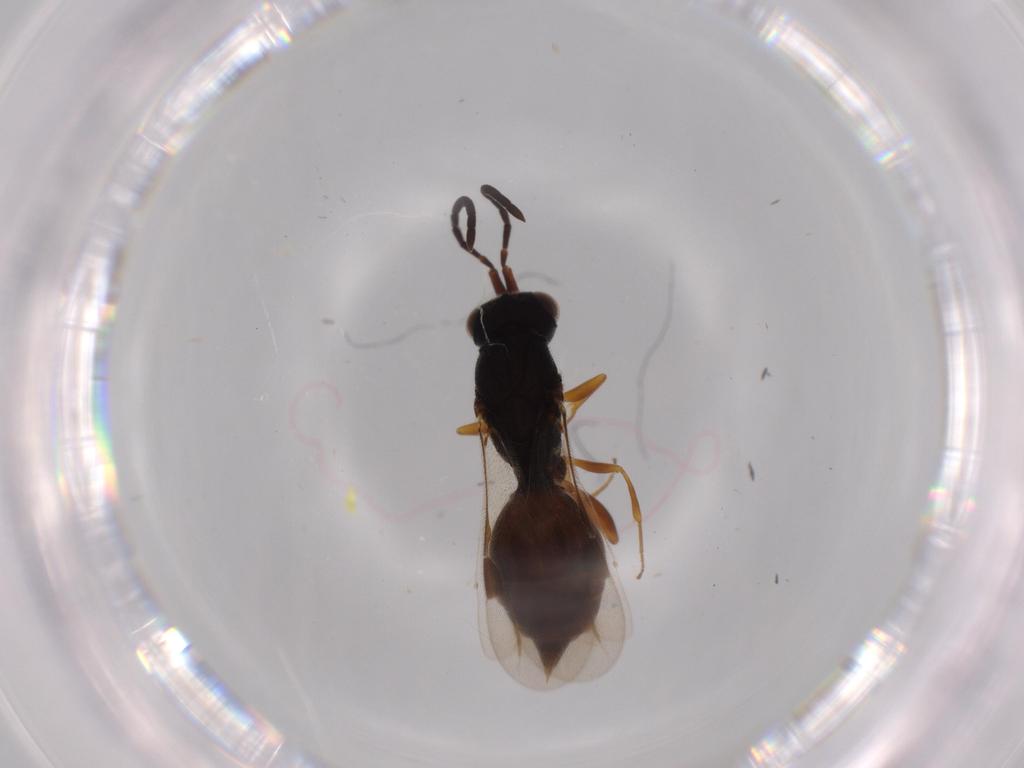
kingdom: Animalia
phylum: Arthropoda
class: Insecta
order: Hymenoptera
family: Megaspilidae
